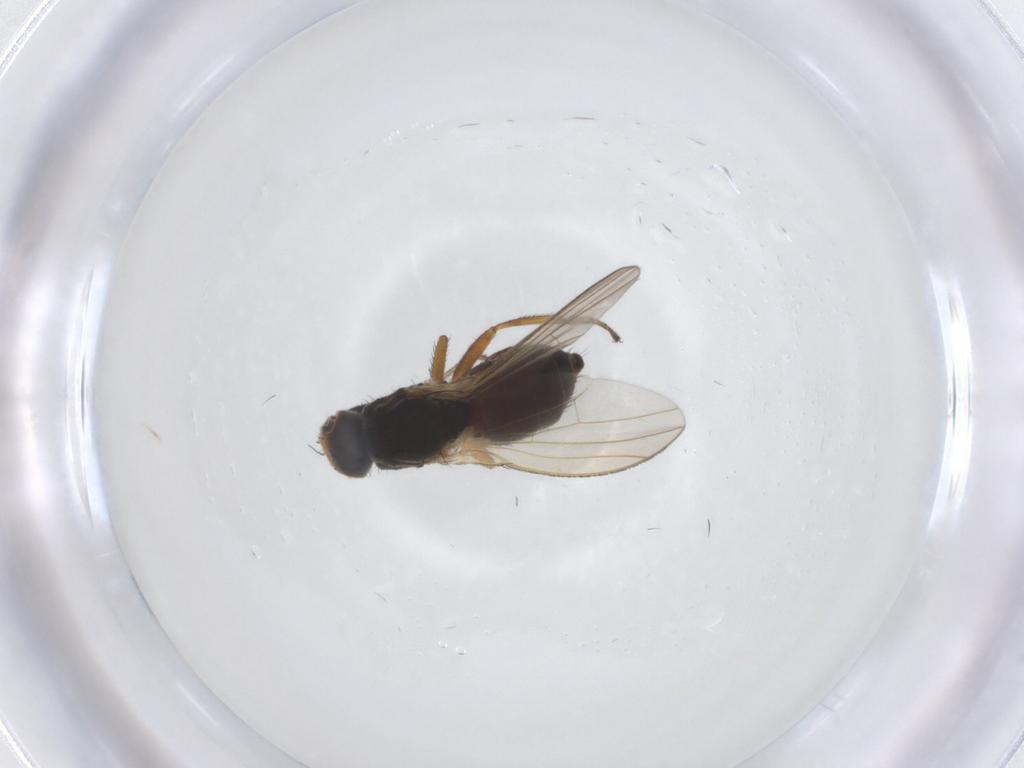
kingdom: Animalia
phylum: Arthropoda
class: Insecta
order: Diptera
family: Heleomyzidae
